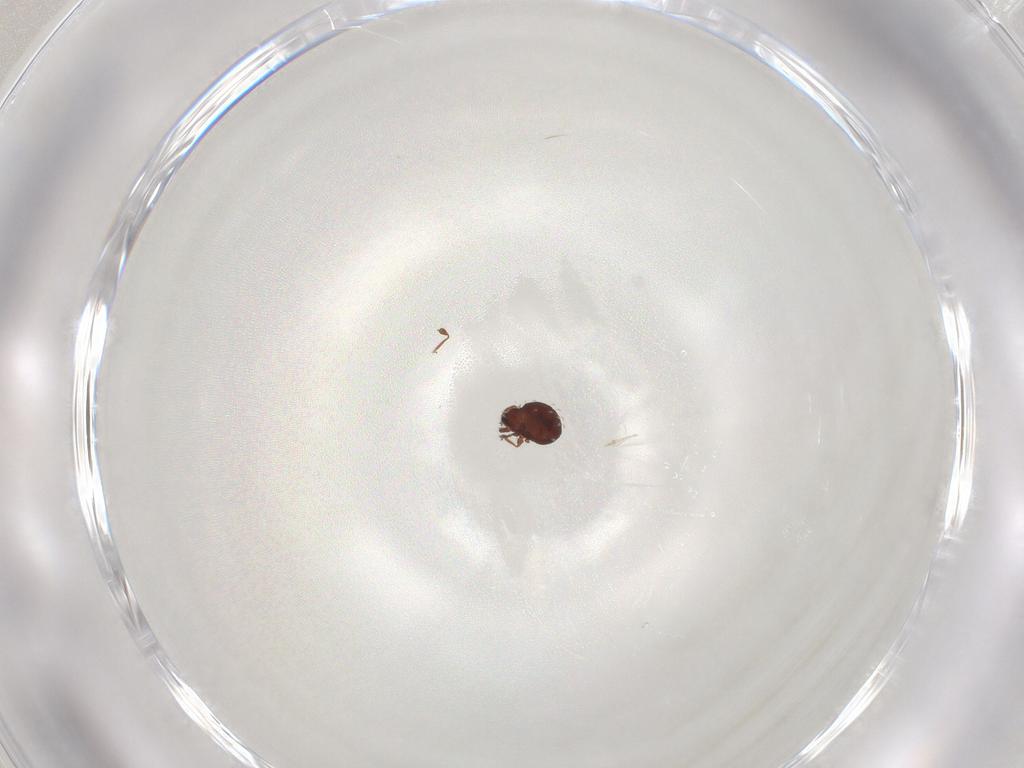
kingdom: Animalia
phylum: Arthropoda
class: Arachnida
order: Sarcoptiformes
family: Scheloribatidae
